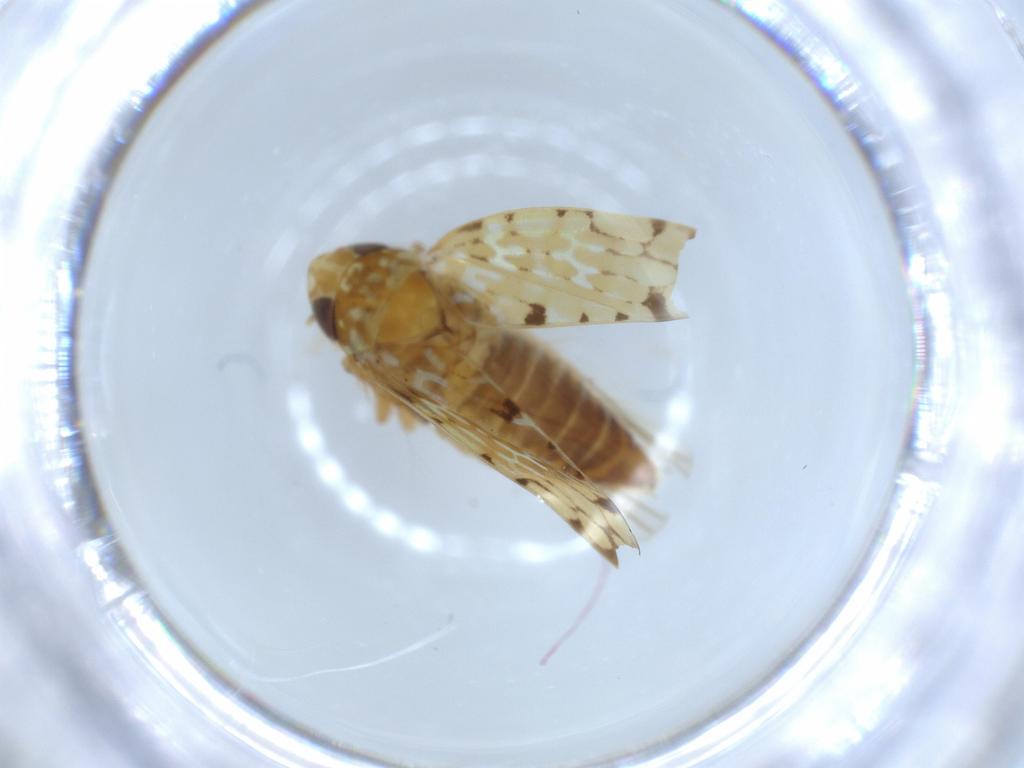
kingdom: Animalia
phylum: Arthropoda
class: Insecta
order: Hemiptera
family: Cicadellidae
